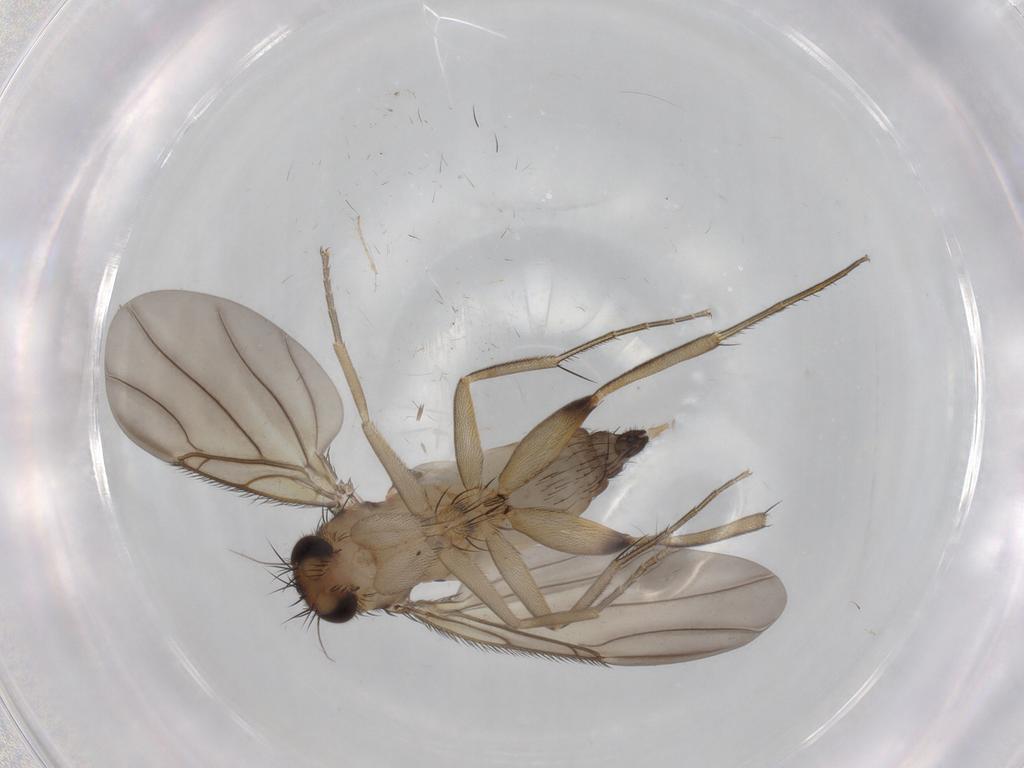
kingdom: Animalia
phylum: Arthropoda
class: Insecta
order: Diptera
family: Phoridae
